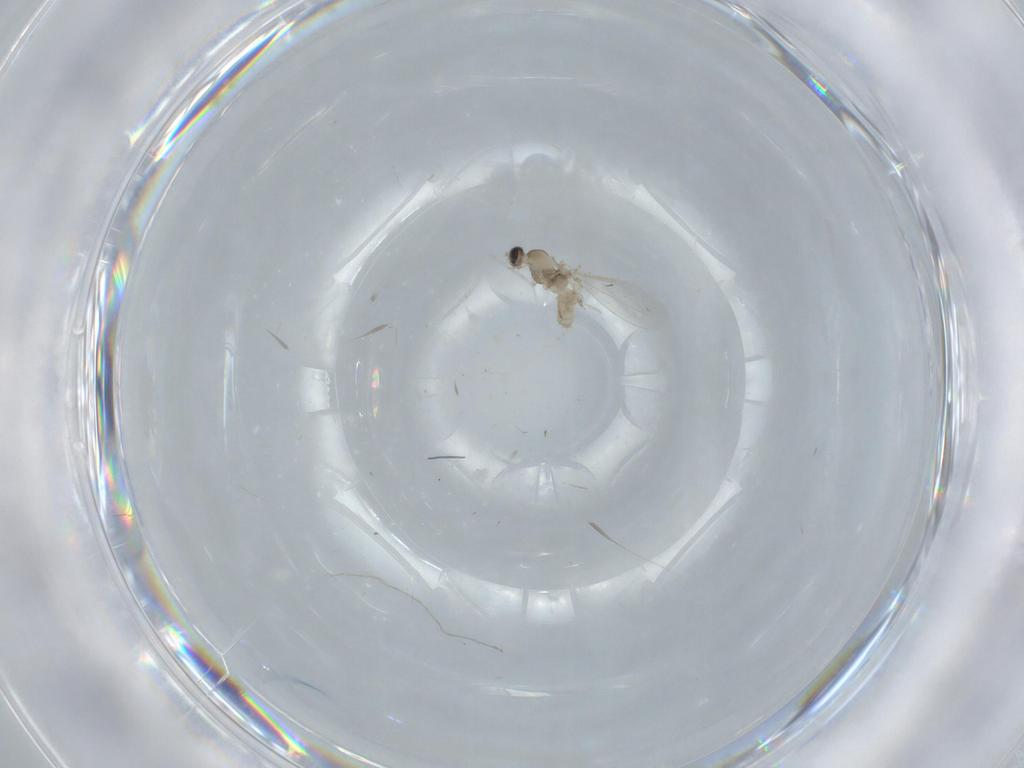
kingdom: Animalia
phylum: Arthropoda
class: Insecta
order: Diptera
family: Cecidomyiidae
